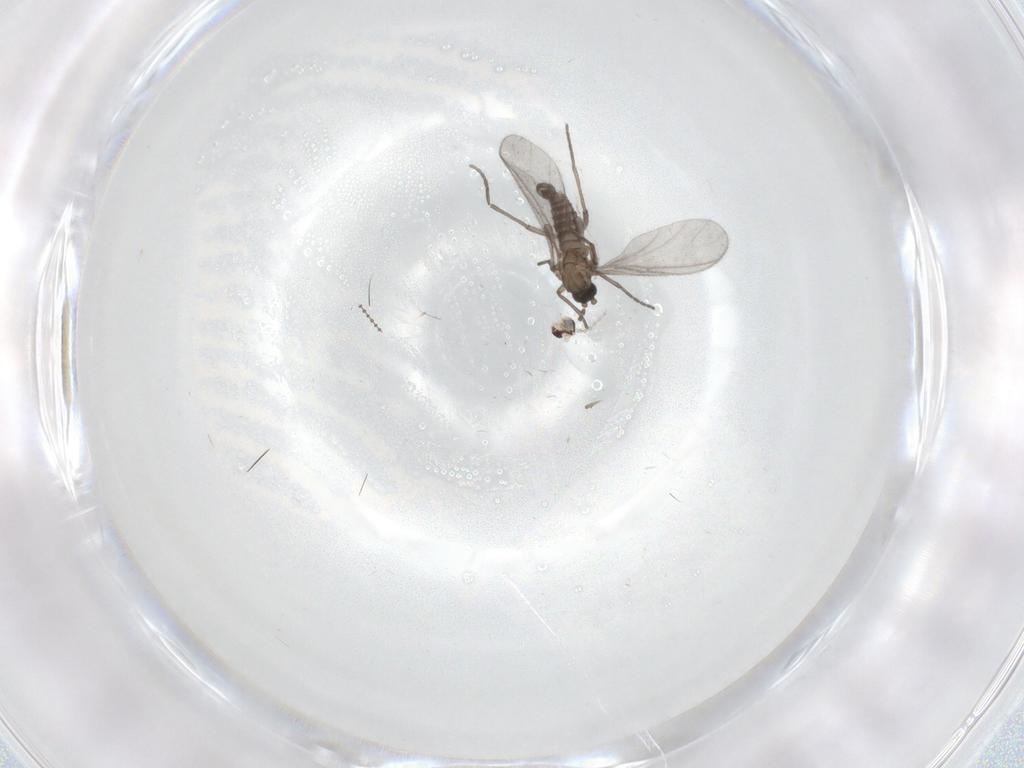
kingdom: Animalia
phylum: Arthropoda
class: Insecta
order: Diptera
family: Sciaridae
